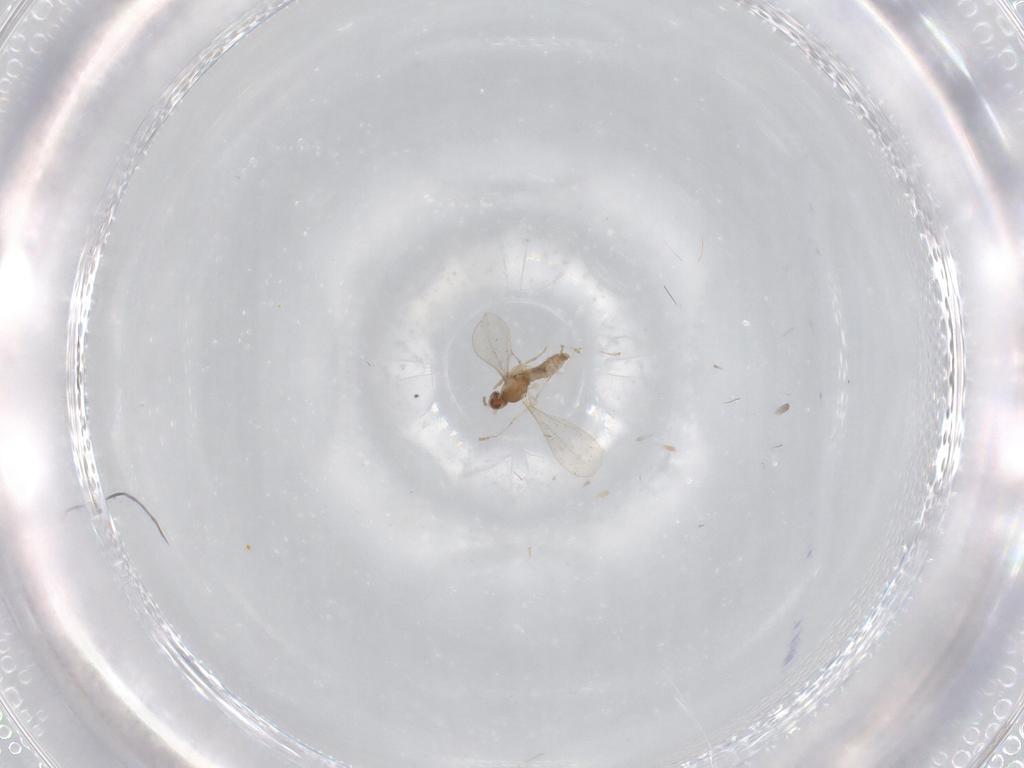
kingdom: Animalia
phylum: Arthropoda
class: Insecta
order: Diptera
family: Cecidomyiidae
